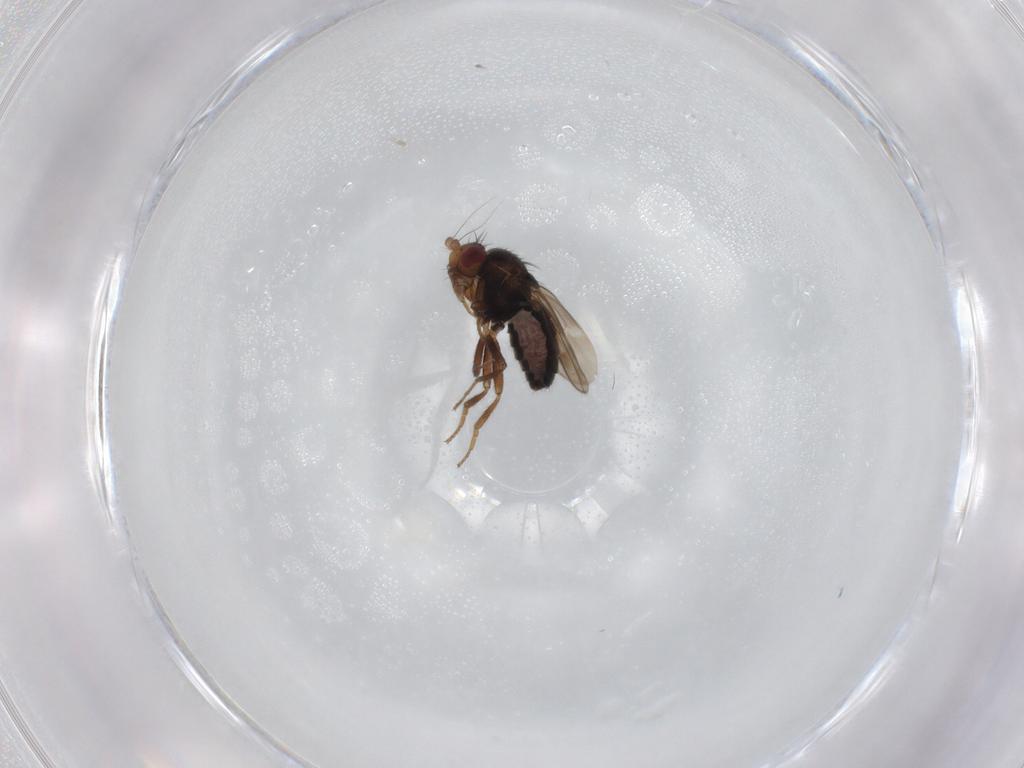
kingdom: Animalia
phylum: Arthropoda
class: Insecta
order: Diptera
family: Sphaeroceridae
